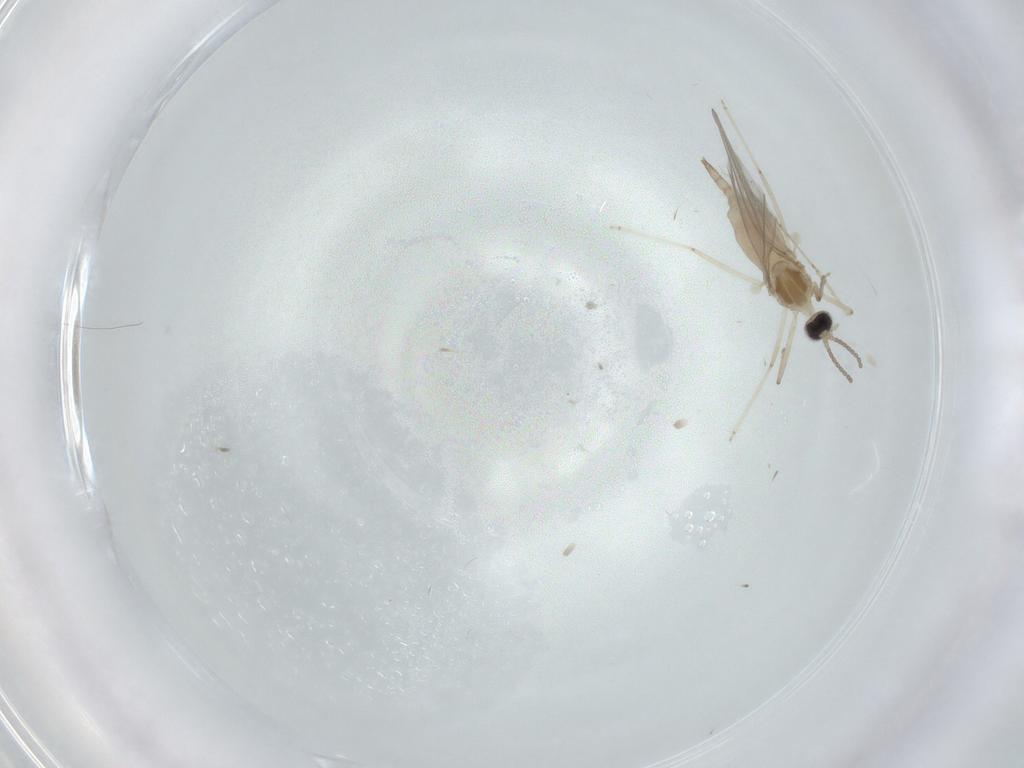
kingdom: Animalia
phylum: Arthropoda
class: Insecta
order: Diptera
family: Cecidomyiidae
